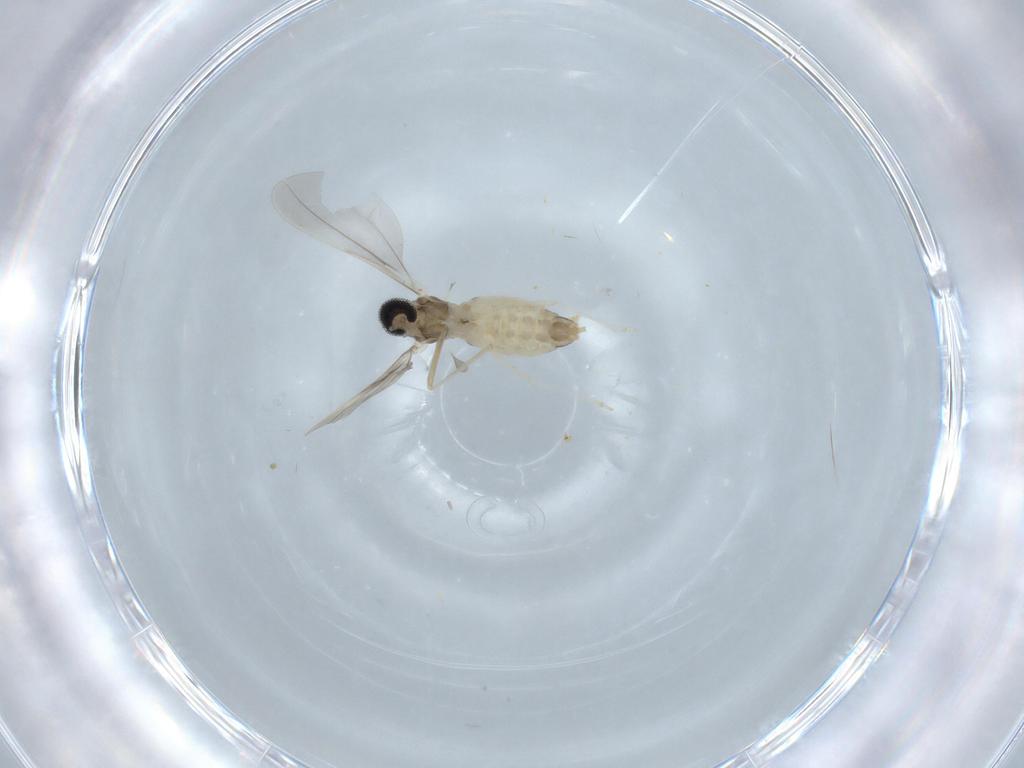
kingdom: Animalia
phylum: Arthropoda
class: Insecta
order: Diptera
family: Cecidomyiidae
